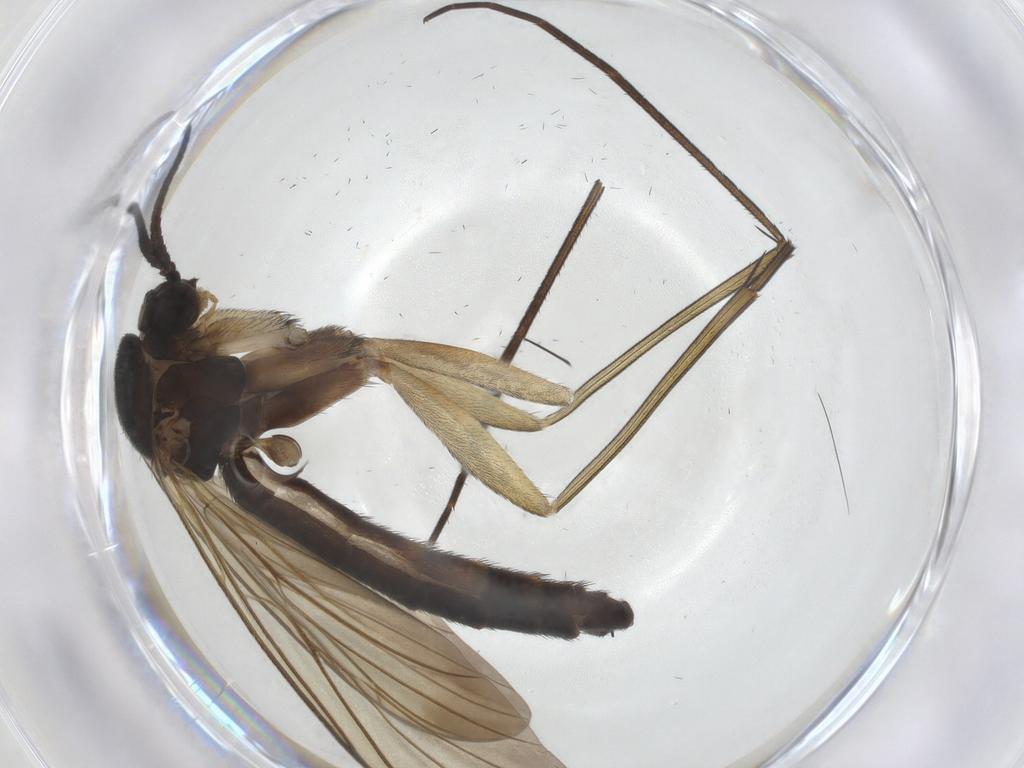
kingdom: Animalia
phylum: Arthropoda
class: Insecta
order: Diptera
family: Keroplatidae
